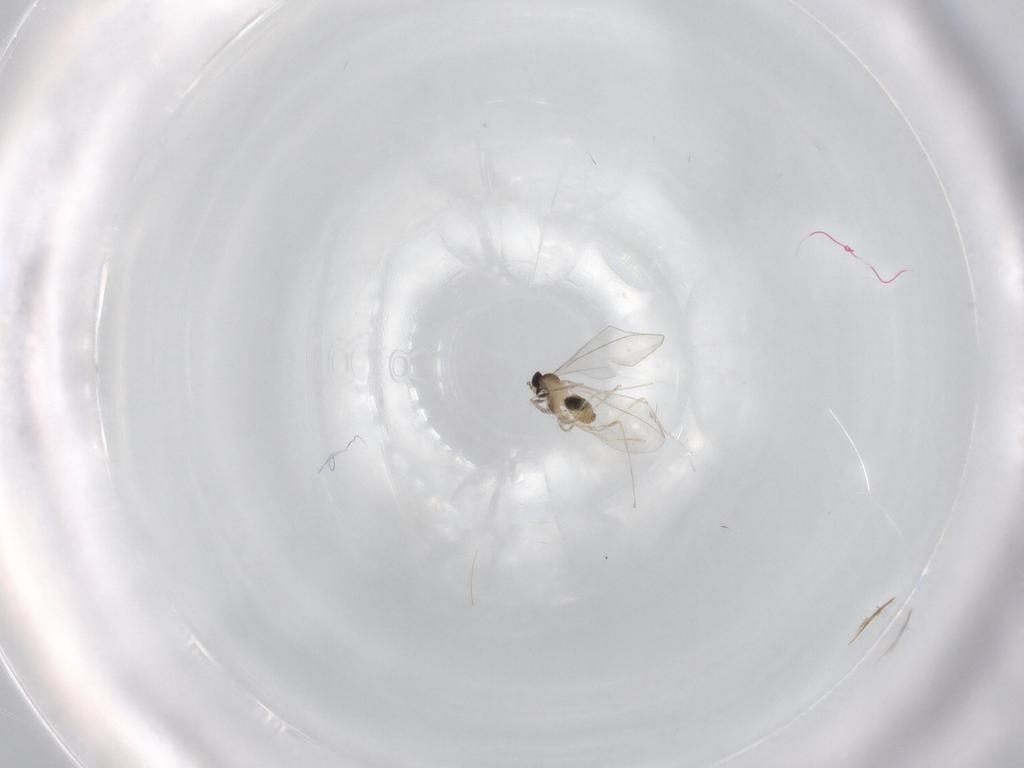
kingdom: Animalia
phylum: Arthropoda
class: Insecta
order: Diptera
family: Cecidomyiidae
